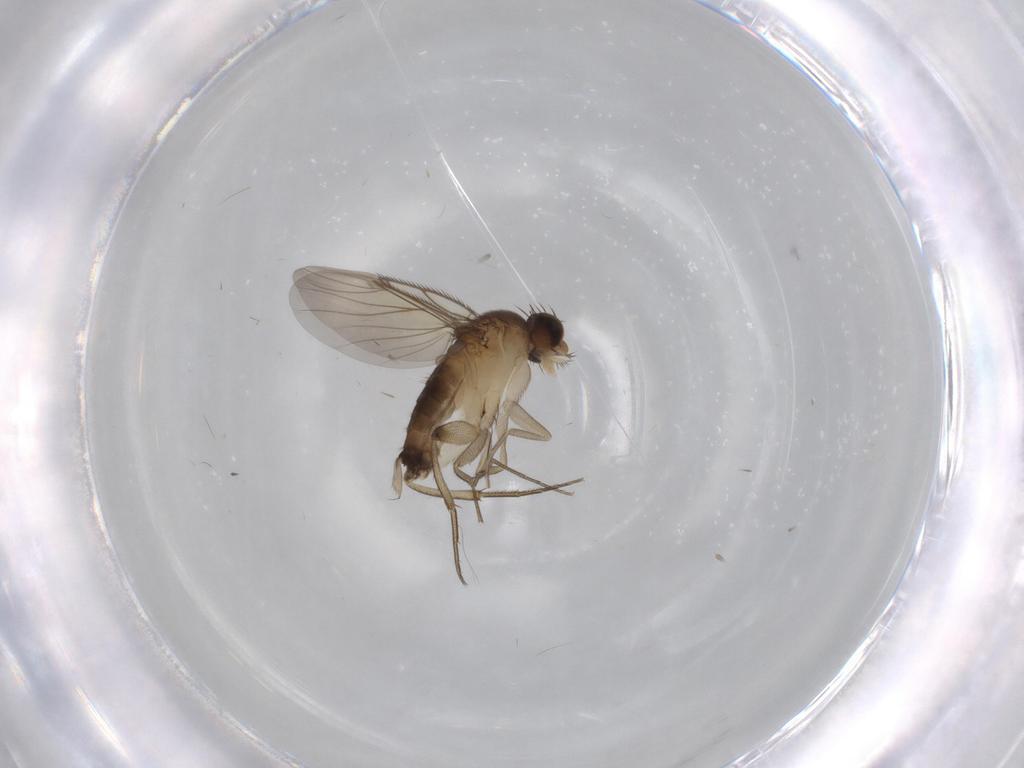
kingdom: Animalia
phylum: Arthropoda
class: Insecta
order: Diptera
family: Phoridae
